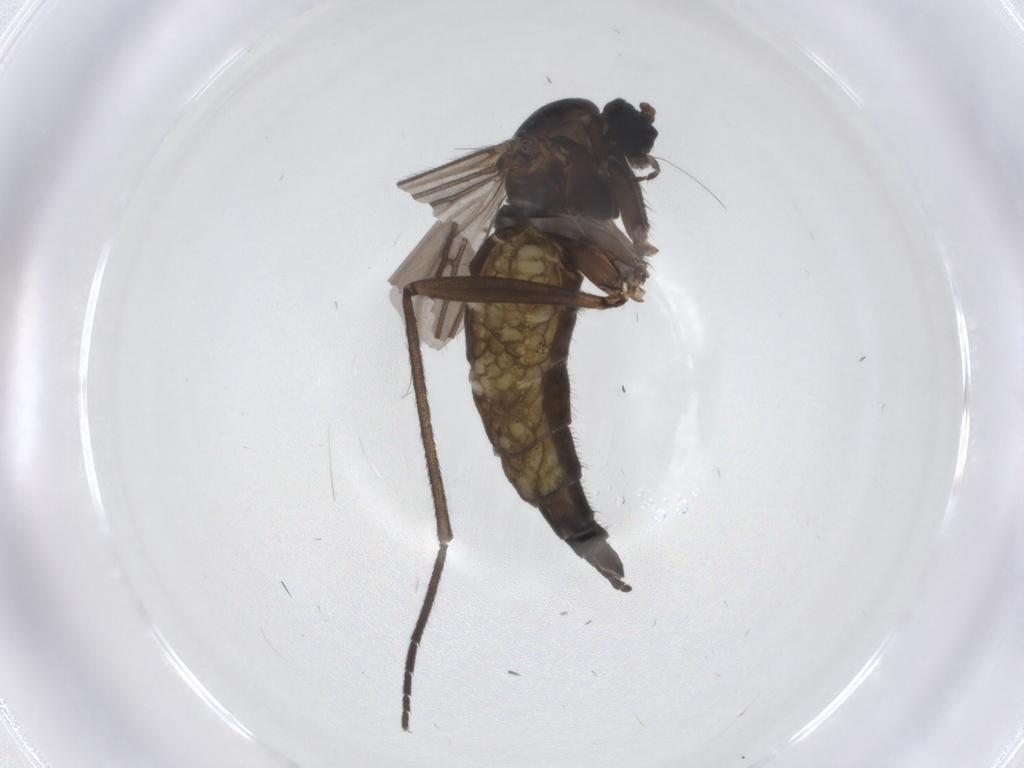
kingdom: Animalia
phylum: Arthropoda
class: Insecta
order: Diptera
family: Sciaridae
